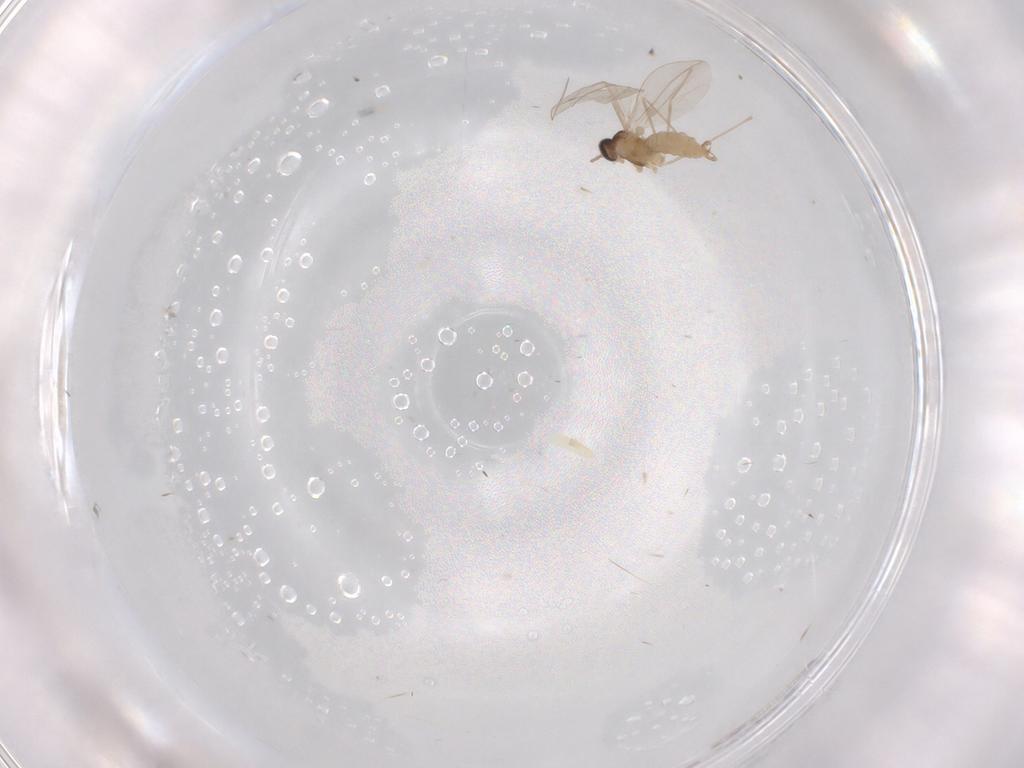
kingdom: Animalia
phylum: Arthropoda
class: Insecta
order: Diptera
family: Cecidomyiidae
